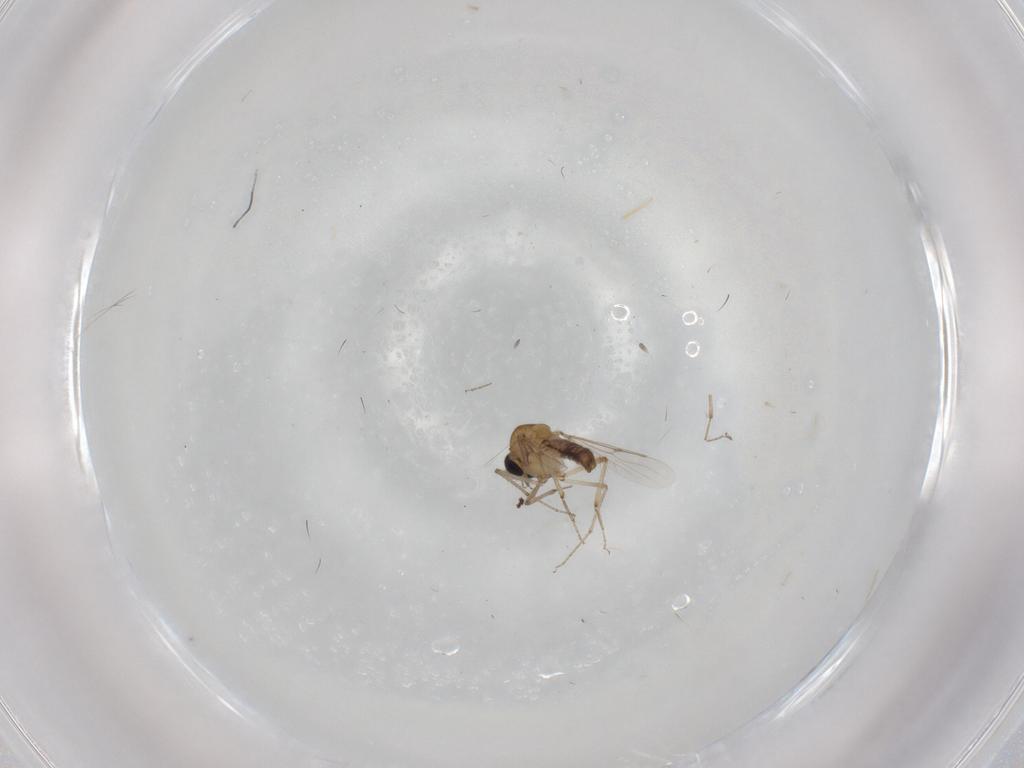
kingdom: Animalia
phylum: Arthropoda
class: Insecta
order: Diptera
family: Ceratopogonidae
